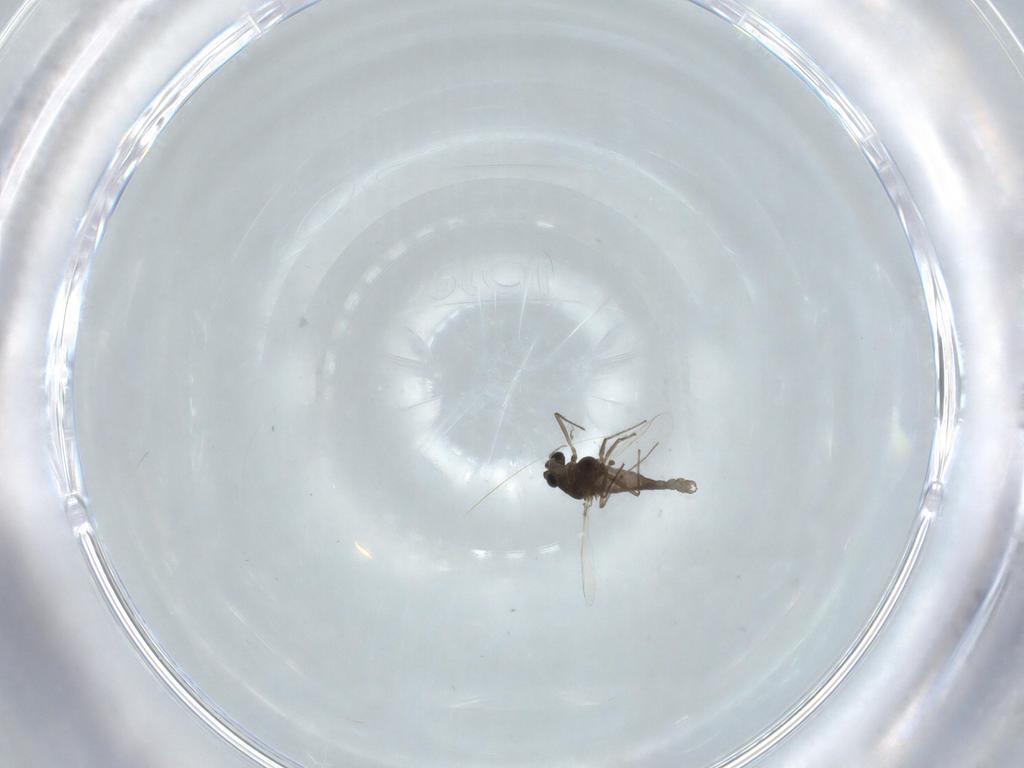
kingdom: Animalia
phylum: Arthropoda
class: Insecta
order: Diptera
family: Chironomidae
